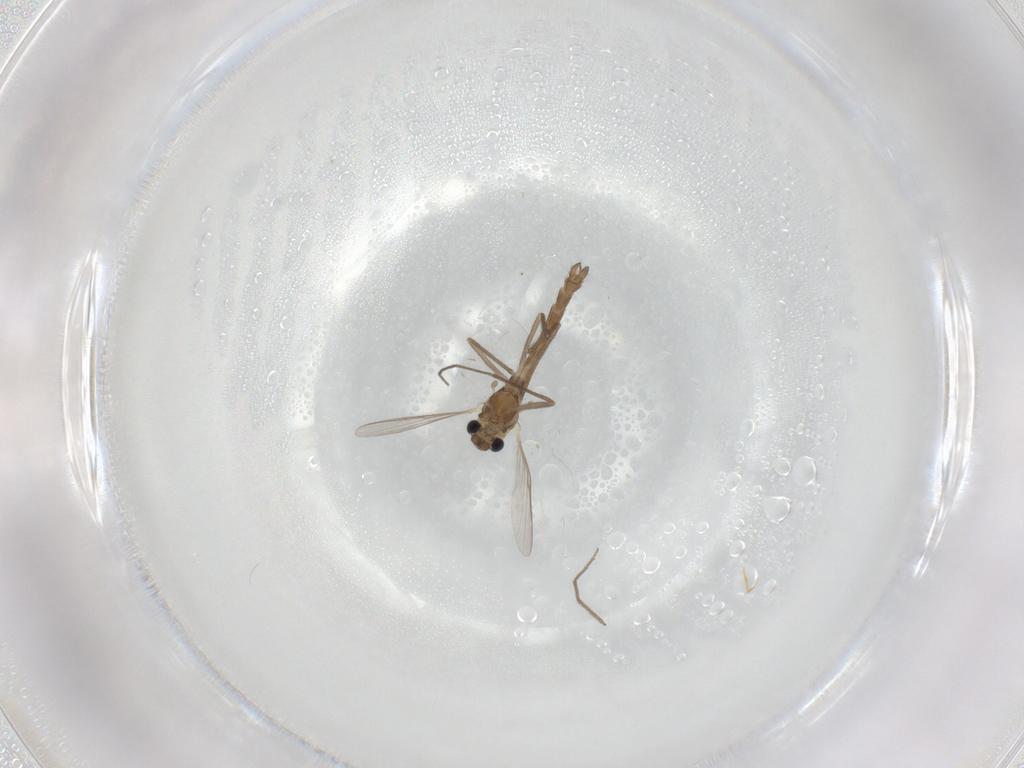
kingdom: Animalia
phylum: Arthropoda
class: Insecta
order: Diptera
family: Chironomidae
